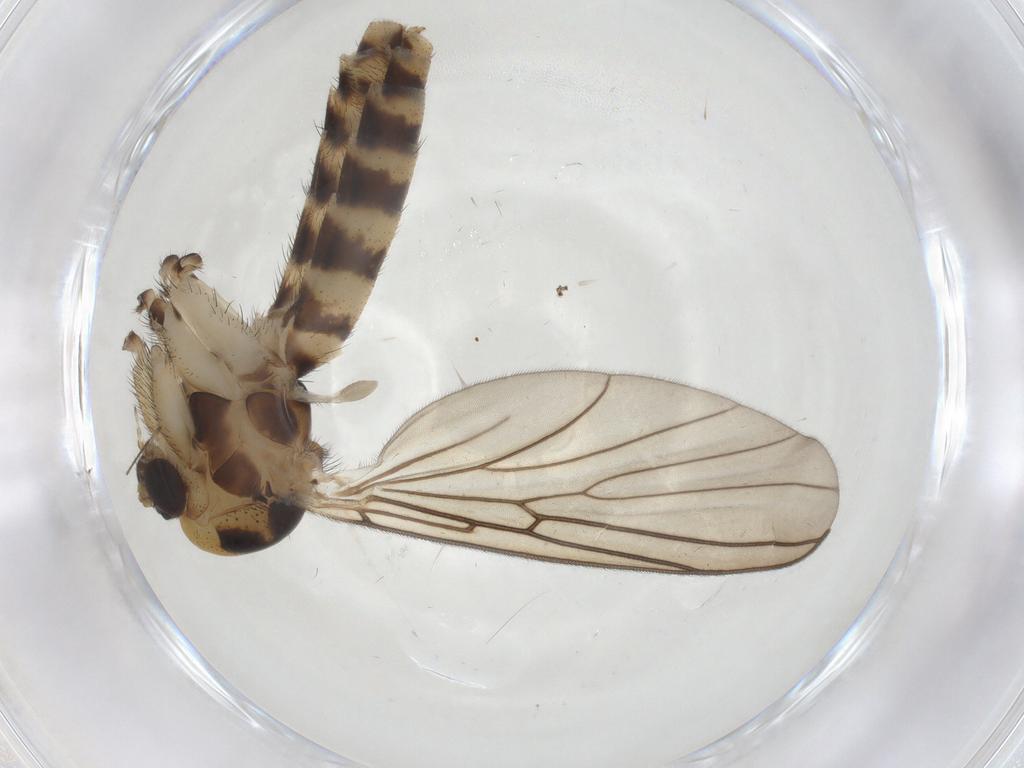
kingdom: Animalia
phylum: Arthropoda
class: Insecta
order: Diptera
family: Mycetophilidae
